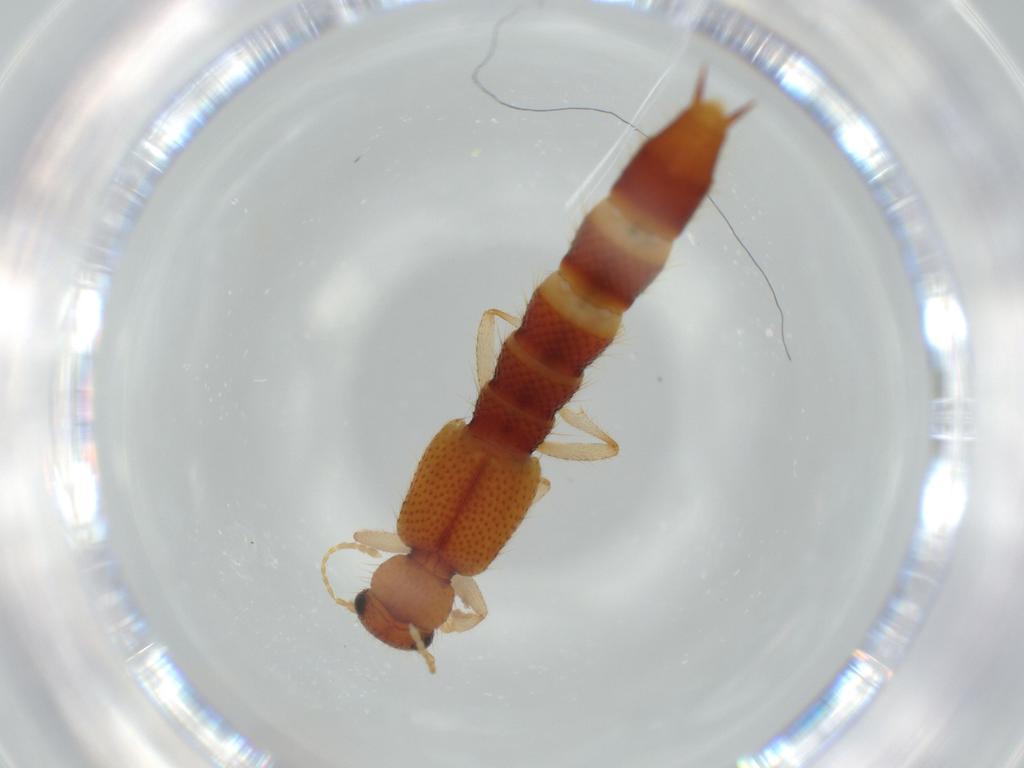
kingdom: Animalia
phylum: Arthropoda
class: Insecta
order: Coleoptera
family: Staphylinidae
